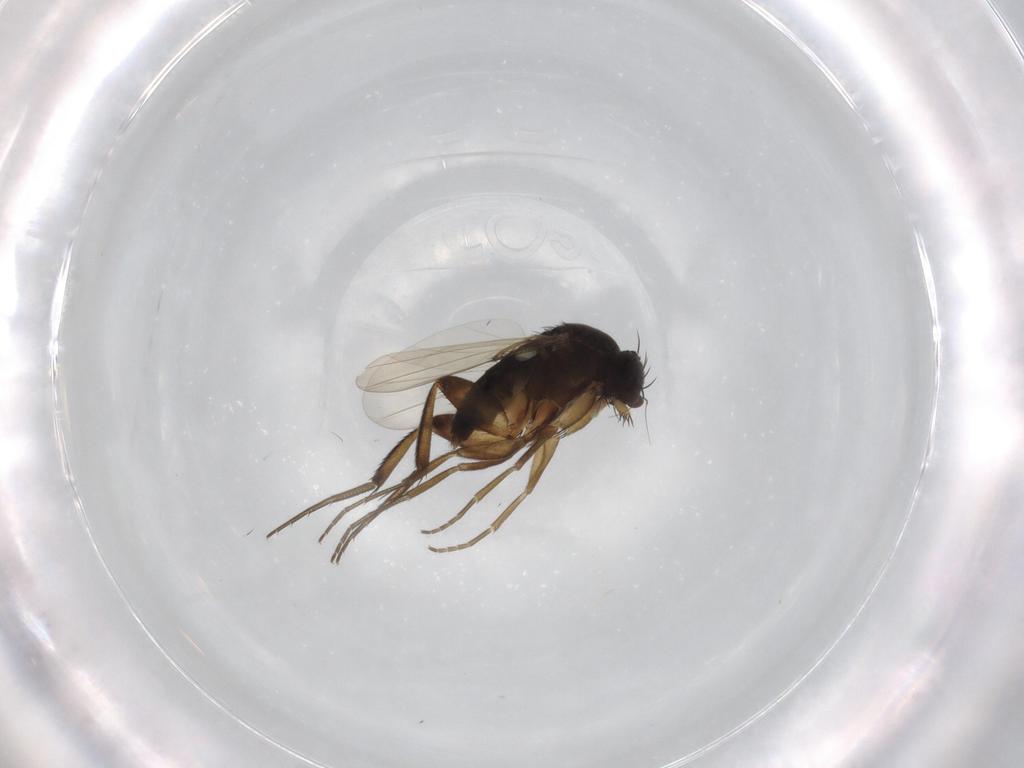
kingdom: Animalia
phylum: Arthropoda
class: Insecta
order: Diptera
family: Phoridae
